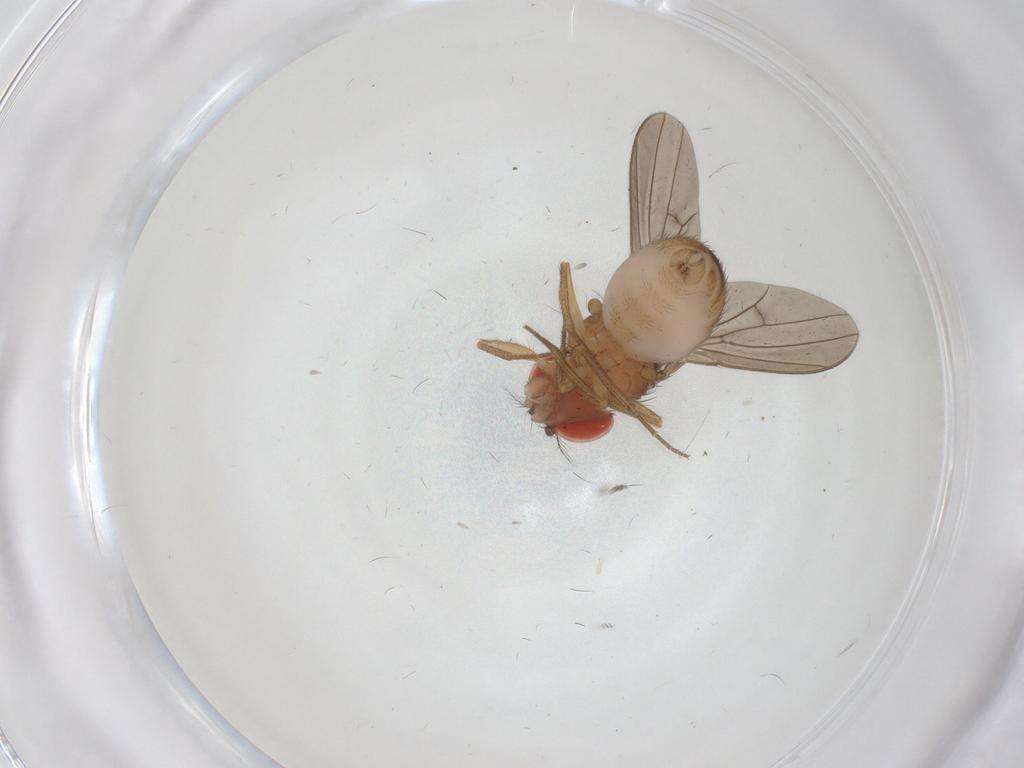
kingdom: Animalia
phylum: Arthropoda
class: Insecta
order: Diptera
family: Drosophilidae
